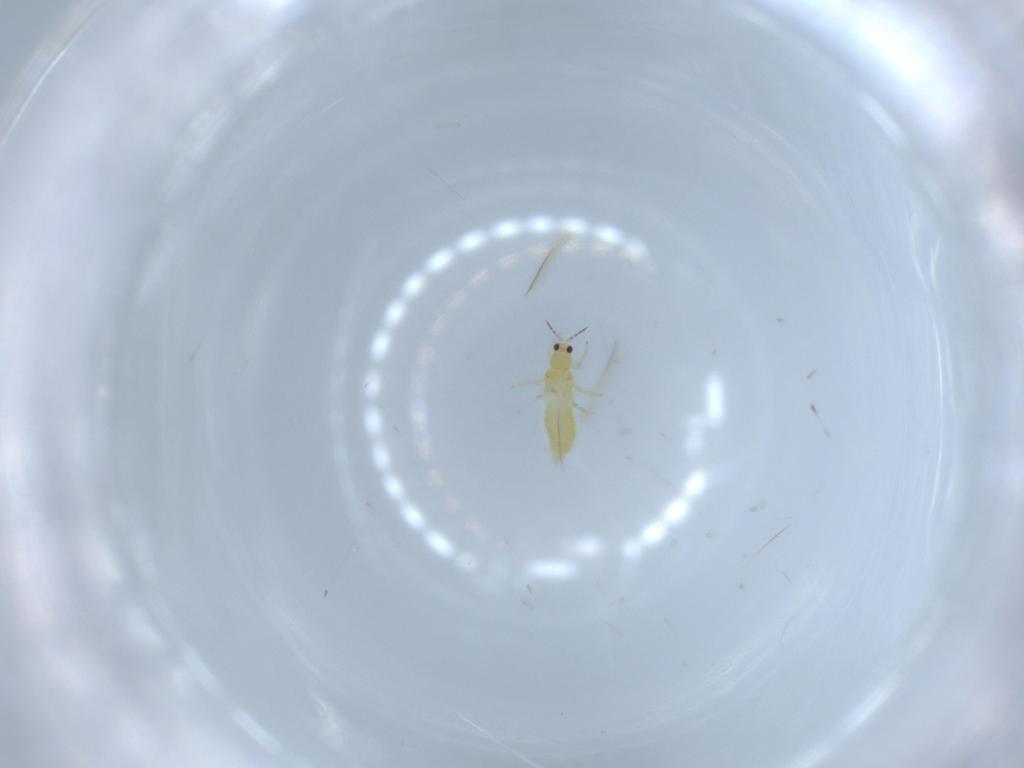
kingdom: Animalia
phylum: Arthropoda
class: Insecta
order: Thysanoptera
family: Thripidae
